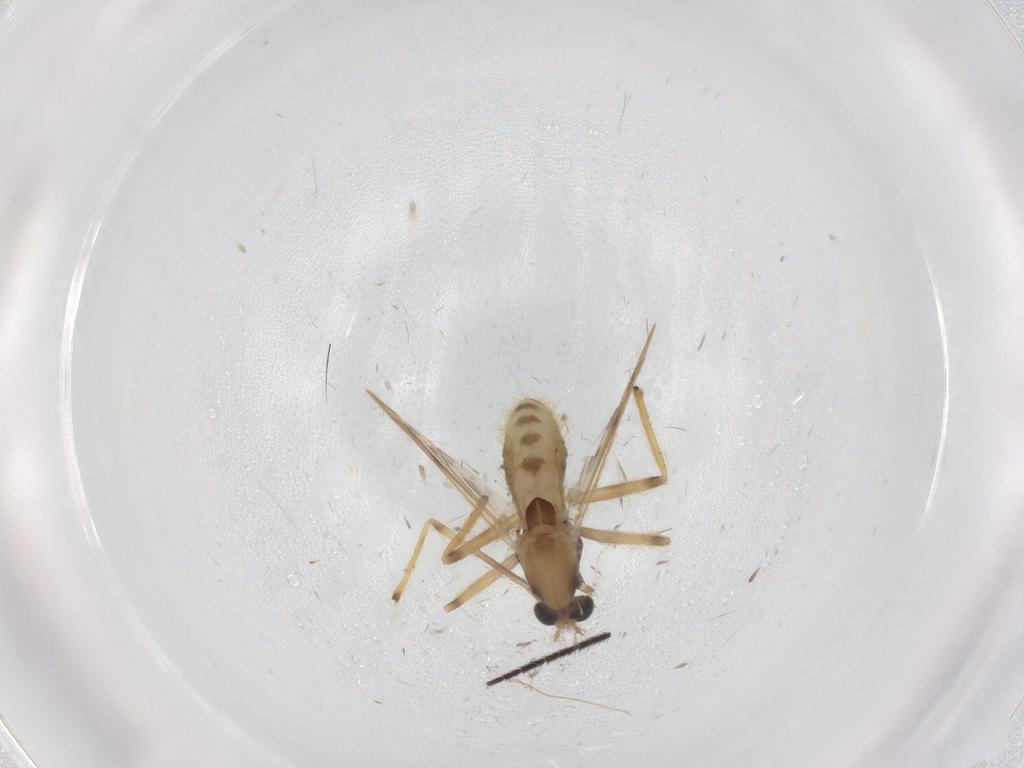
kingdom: Animalia
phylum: Arthropoda
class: Insecta
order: Diptera
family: Chironomidae
